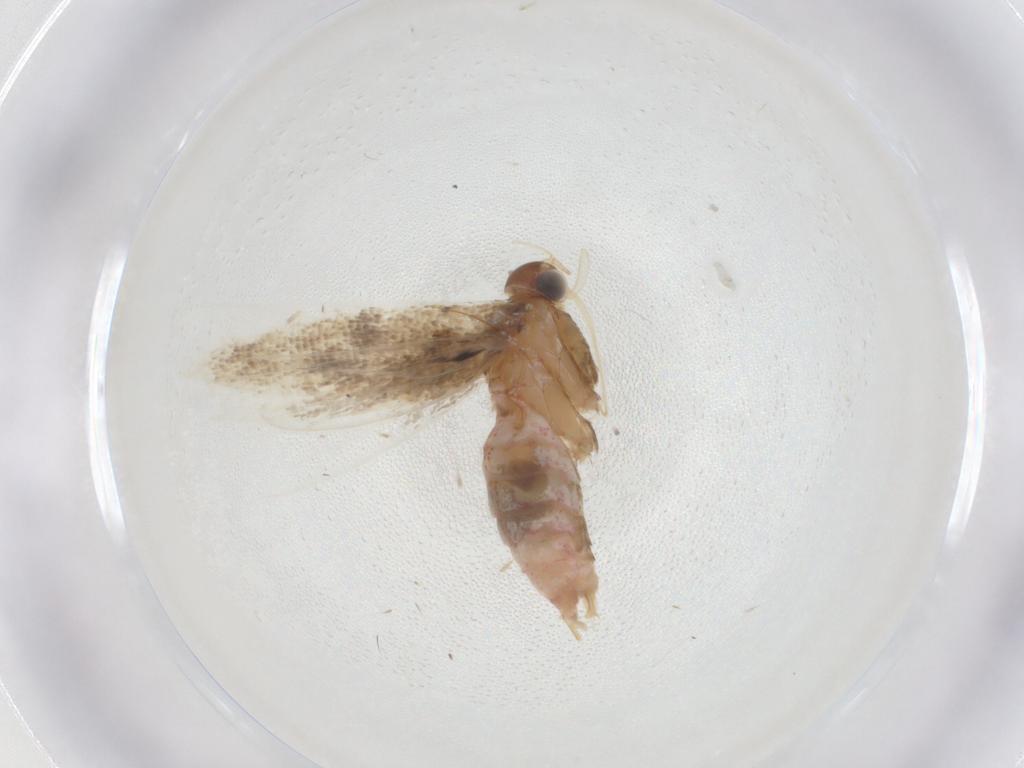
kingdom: Animalia
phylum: Arthropoda
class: Insecta
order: Lepidoptera
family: Gelechiidae
